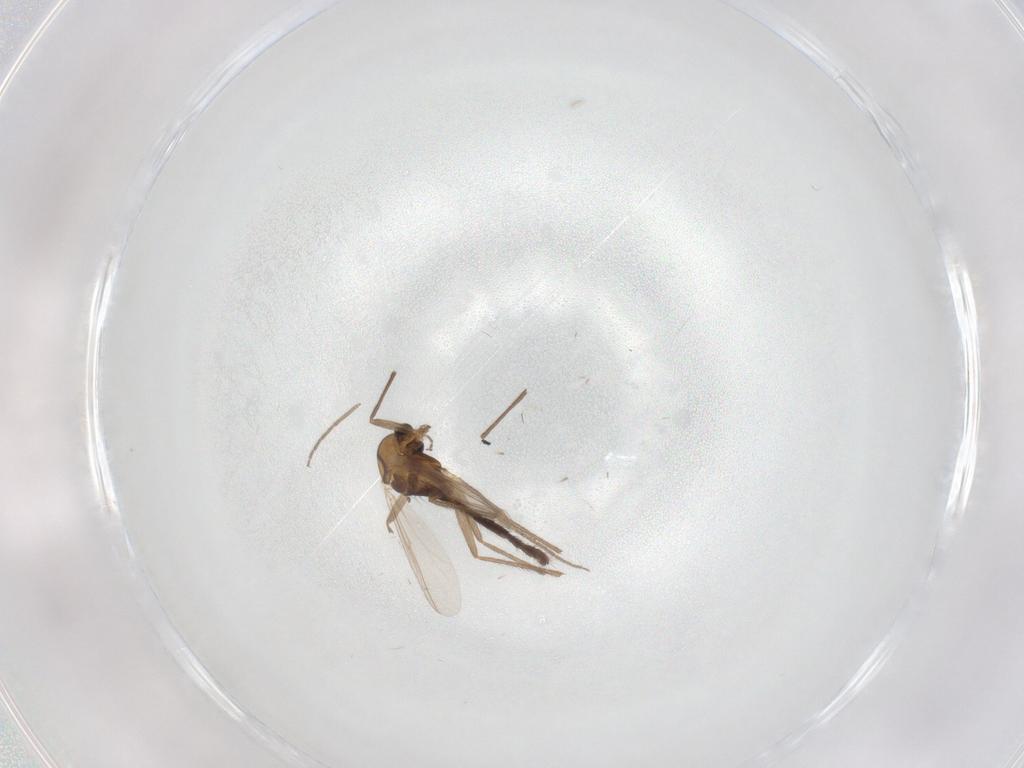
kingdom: Animalia
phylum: Arthropoda
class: Insecta
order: Diptera
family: Chironomidae
